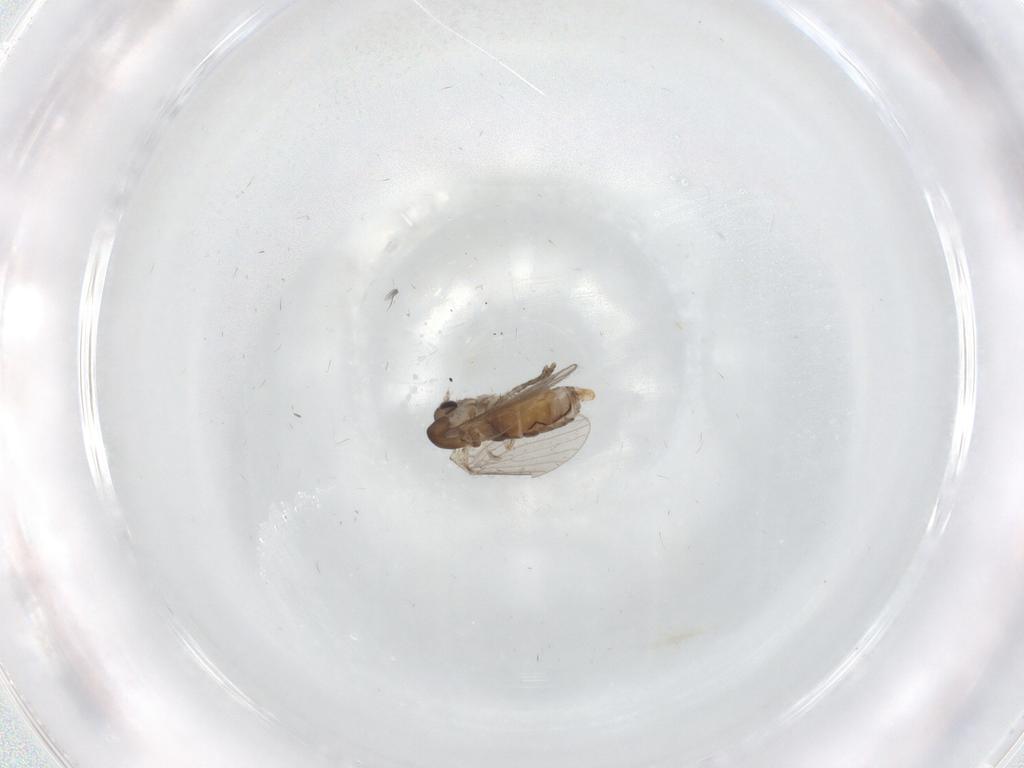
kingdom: Animalia
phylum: Arthropoda
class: Insecta
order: Diptera
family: Psychodidae
